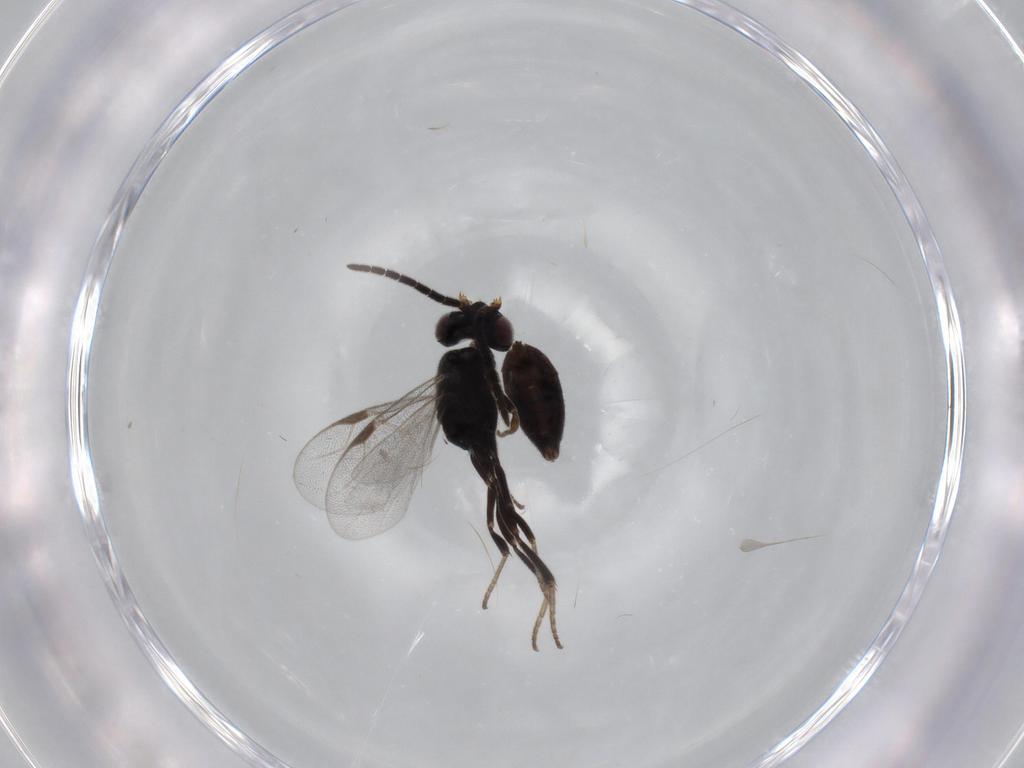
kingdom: Animalia
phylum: Arthropoda
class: Insecta
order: Hymenoptera
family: Dryinidae
